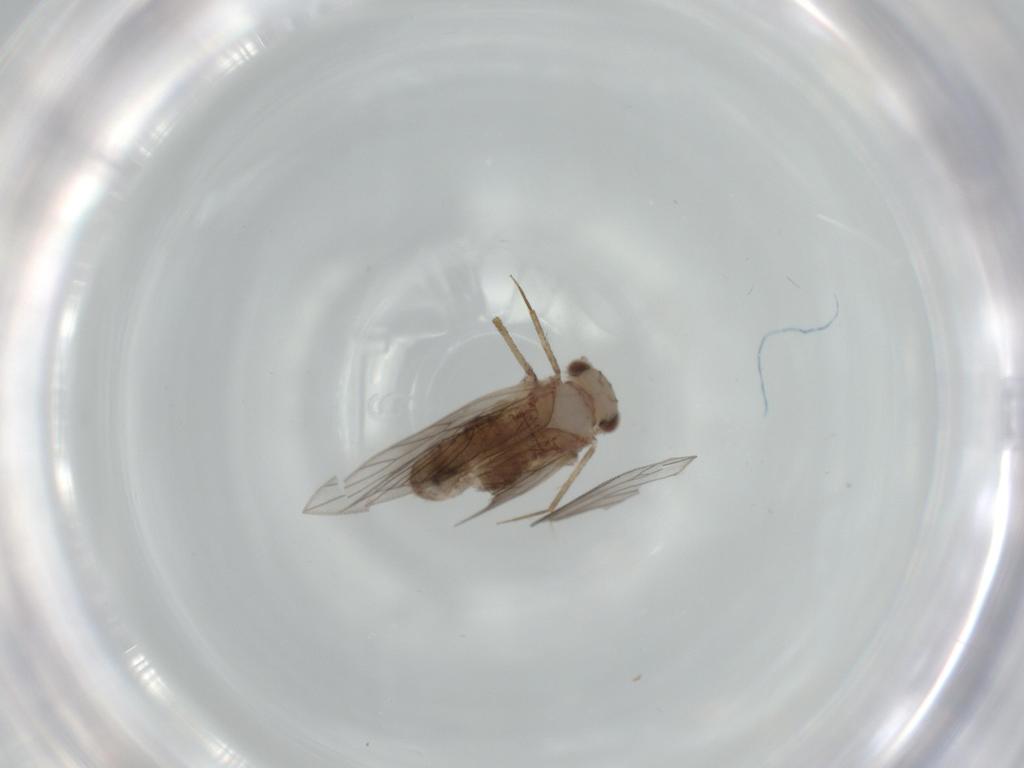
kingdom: Animalia
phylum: Arthropoda
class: Insecta
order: Psocodea
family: Lepidopsocidae
